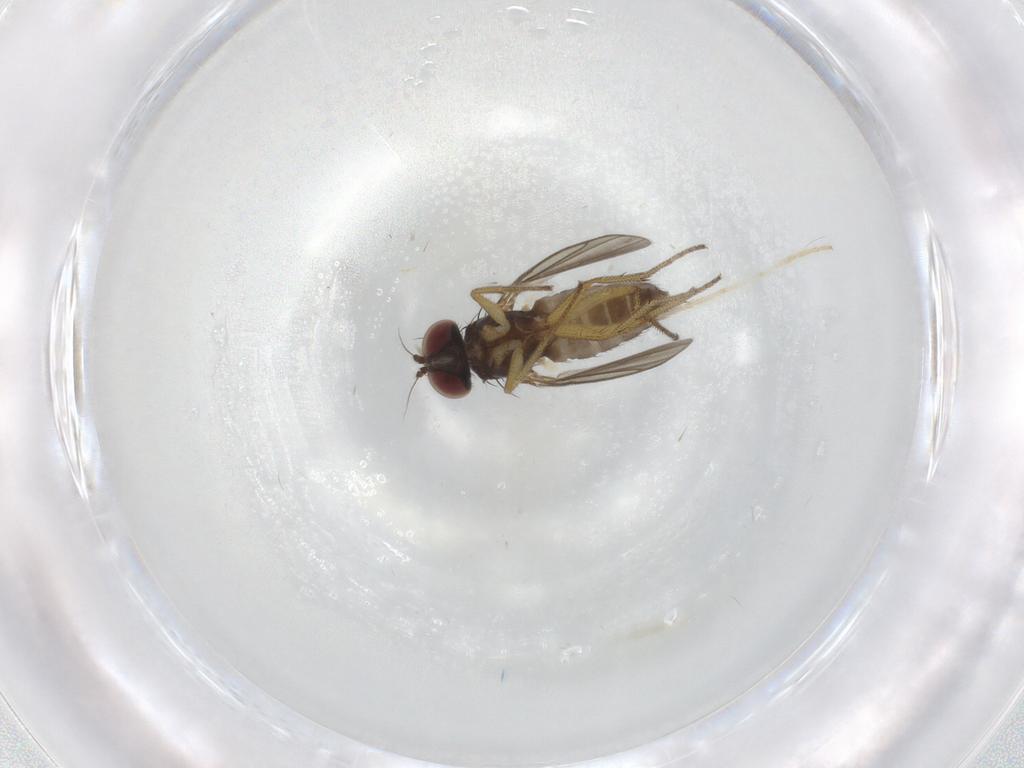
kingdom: Animalia
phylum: Arthropoda
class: Insecta
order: Diptera
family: Chironomidae
